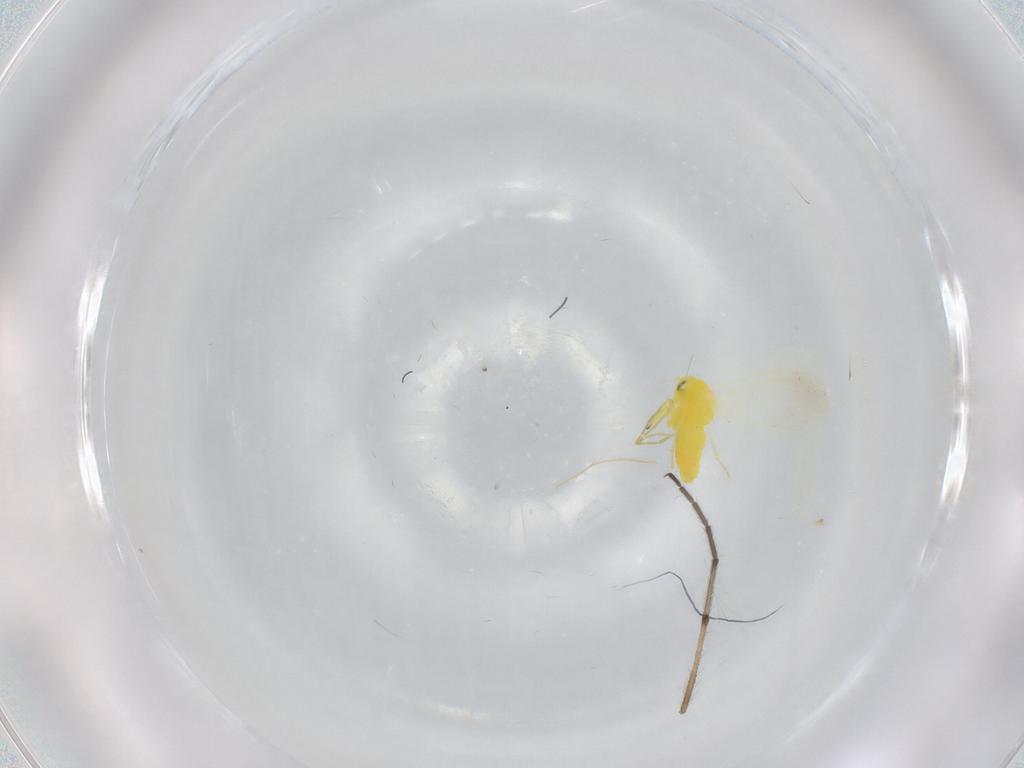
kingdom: Animalia
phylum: Arthropoda
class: Insecta
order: Hemiptera
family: Aleyrodidae
